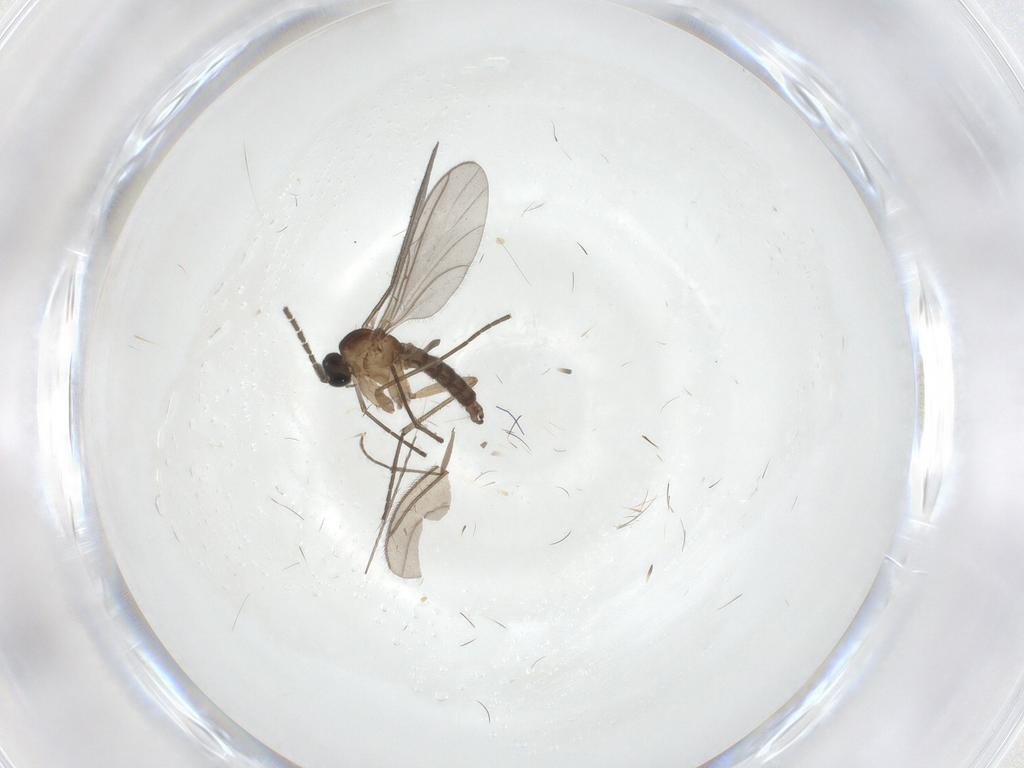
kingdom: Animalia
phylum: Arthropoda
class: Insecta
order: Diptera
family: Sciaridae
